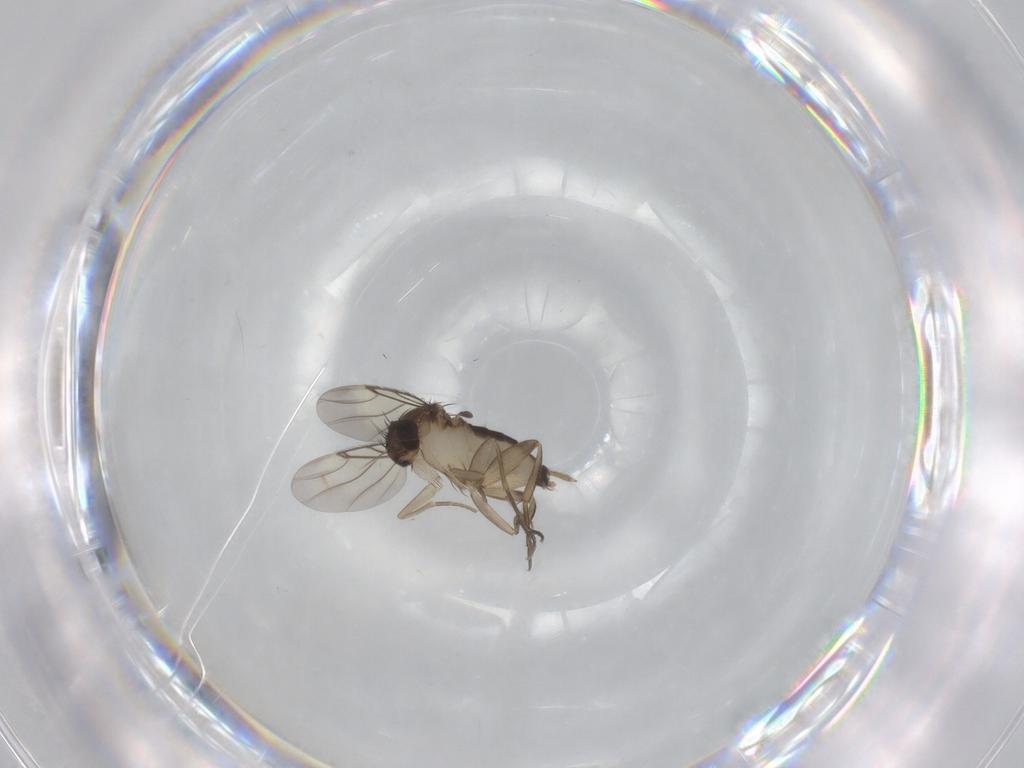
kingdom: Animalia
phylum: Arthropoda
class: Insecta
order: Diptera
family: Phoridae
